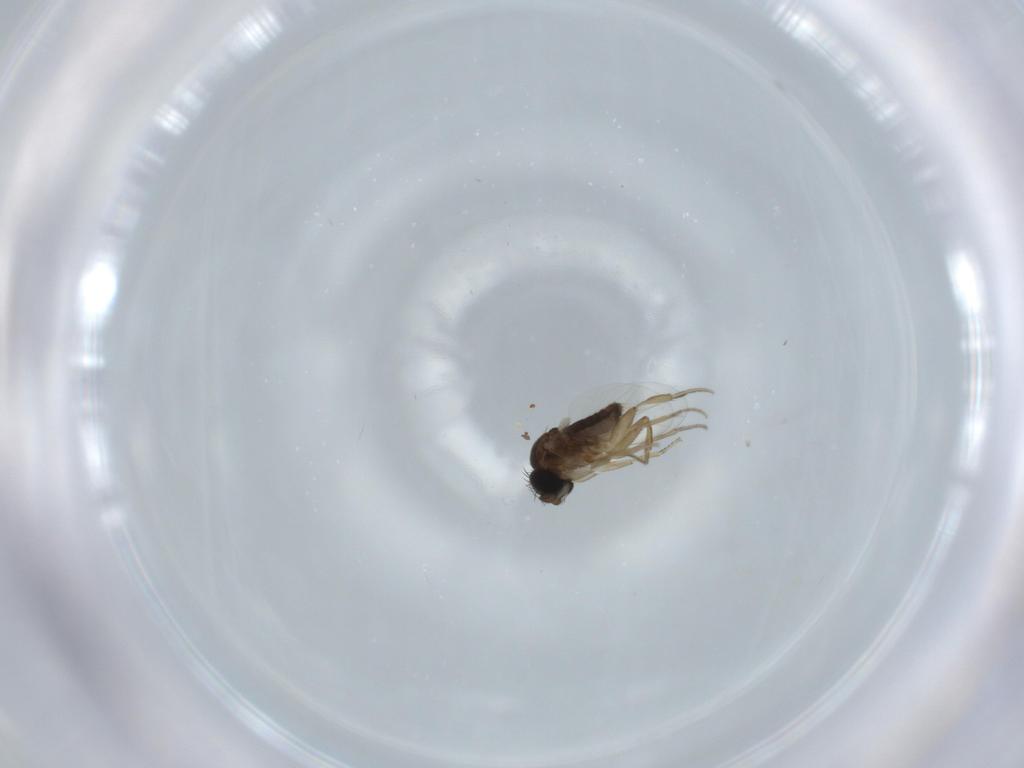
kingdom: Animalia
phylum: Arthropoda
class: Insecta
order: Diptera
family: Phoridae
